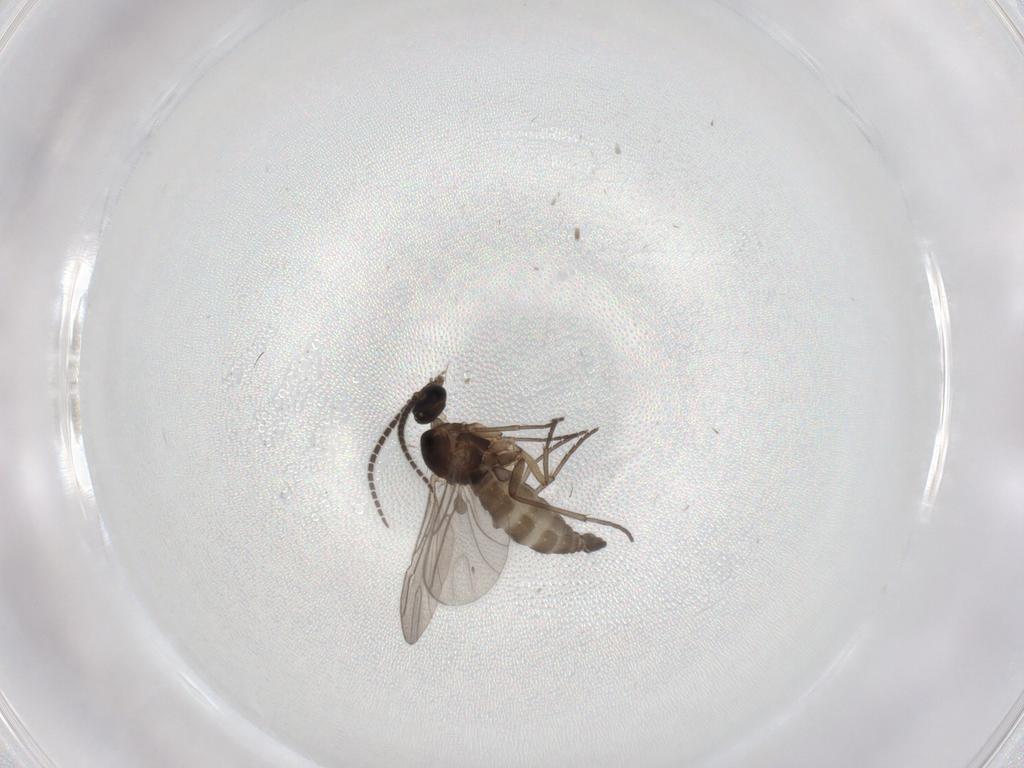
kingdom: Animalia
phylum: Arthropoda
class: Insecta
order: Diptera
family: Sciaridae
